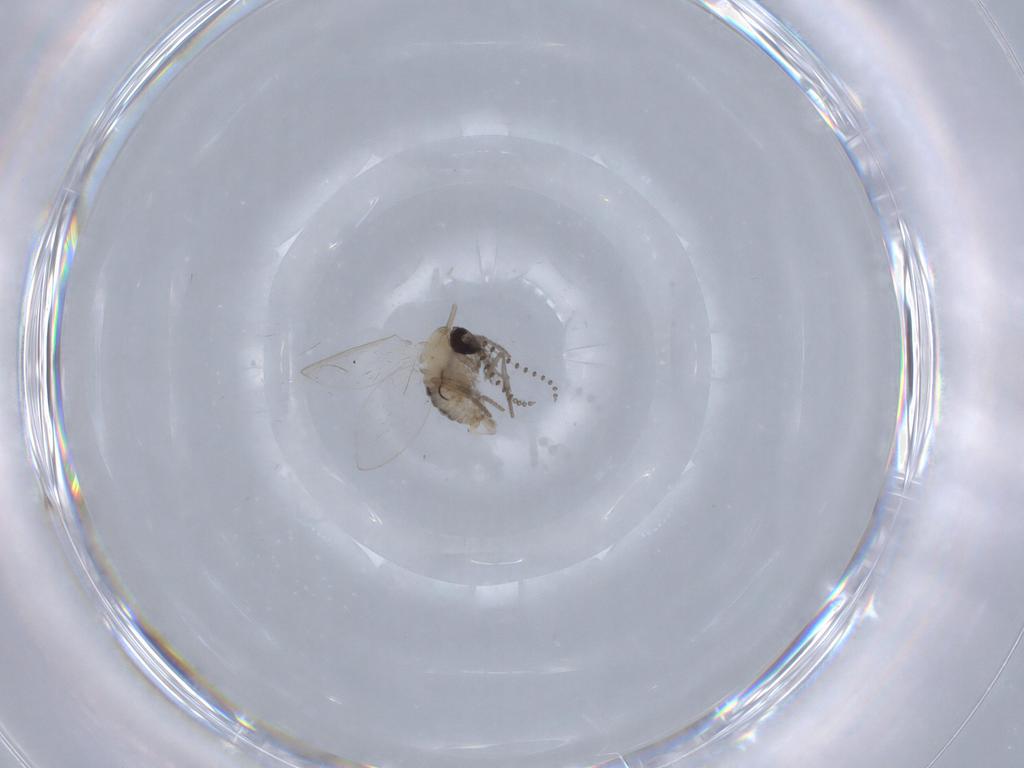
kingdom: Animalia
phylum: Arthropoda
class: Insecta
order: Diptera
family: Psychodidae
